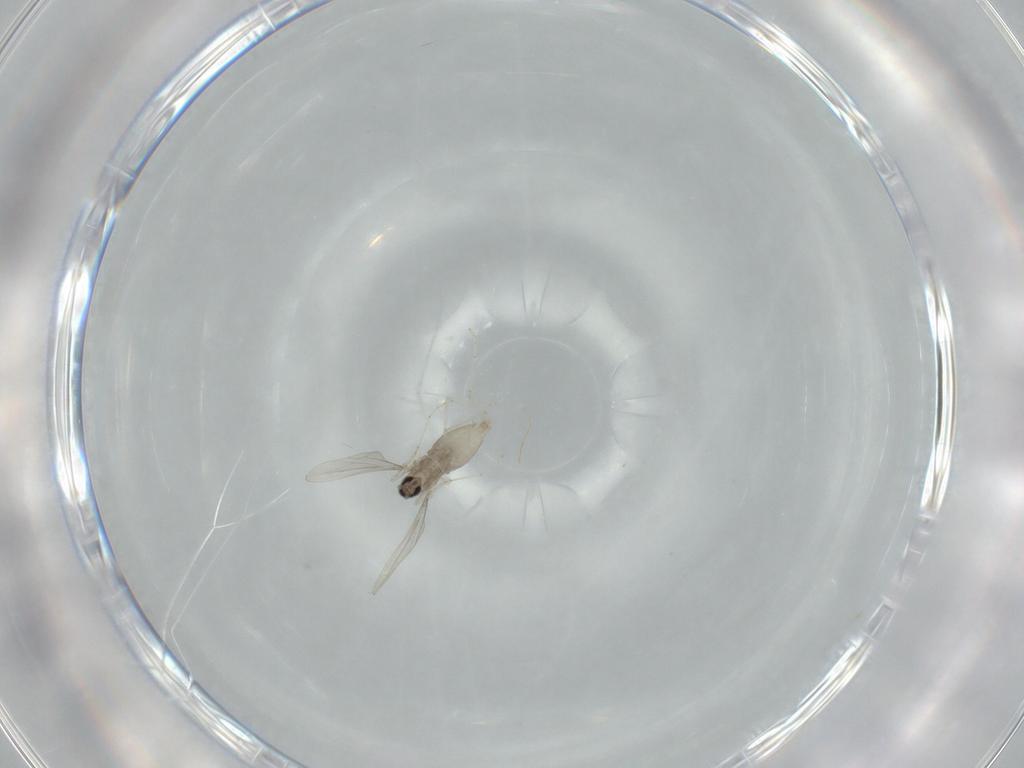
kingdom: Animalia
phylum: Arthropoda
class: Insecta
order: Diptera
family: Cecidomyiidae
